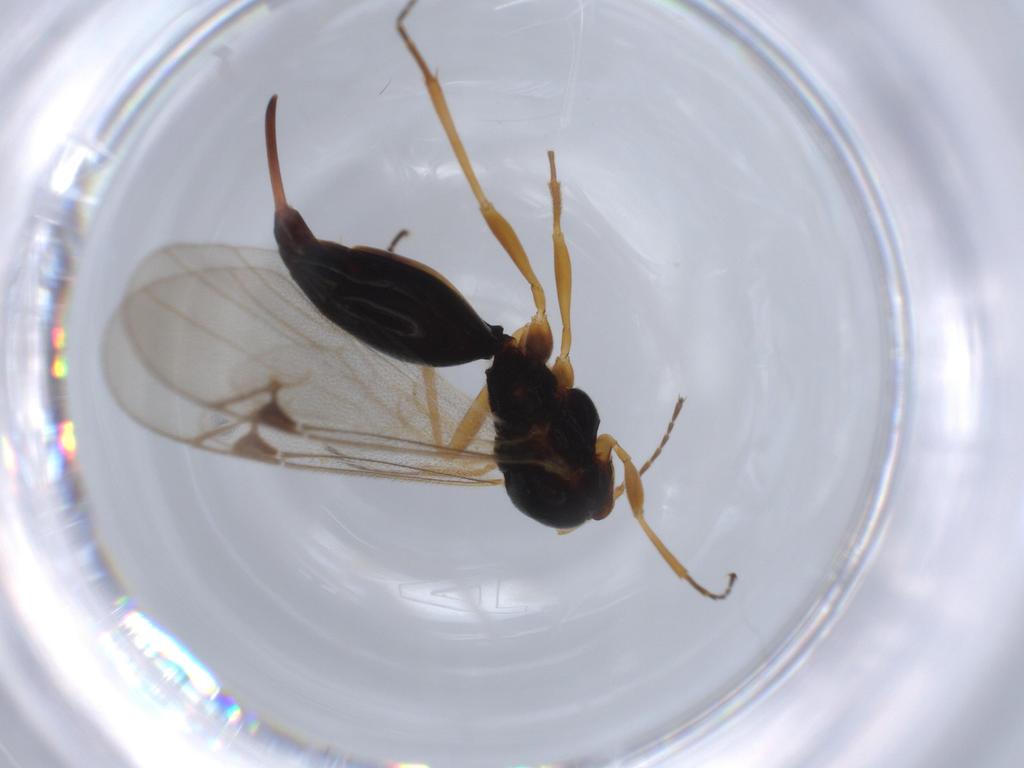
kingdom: Animalia
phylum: Arthropoda
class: Insecta
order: Hymenoptera
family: Proctotrupidae
